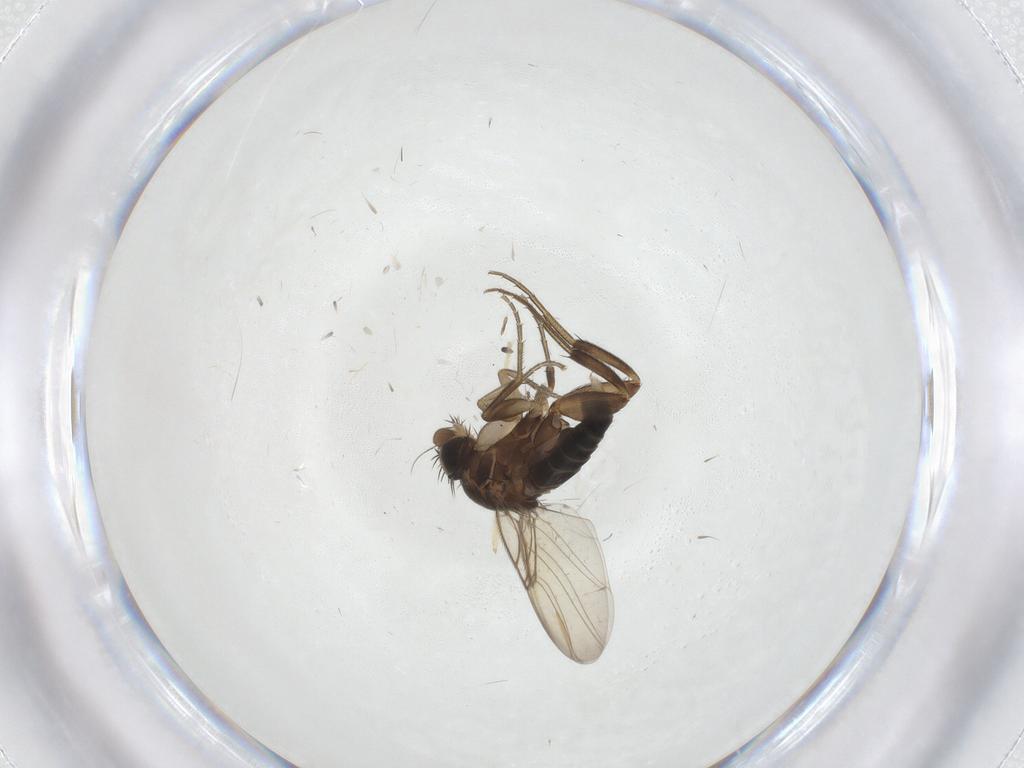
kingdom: Animalia
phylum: Arthropoda
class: Insecta
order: Diptera
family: Phoridae
